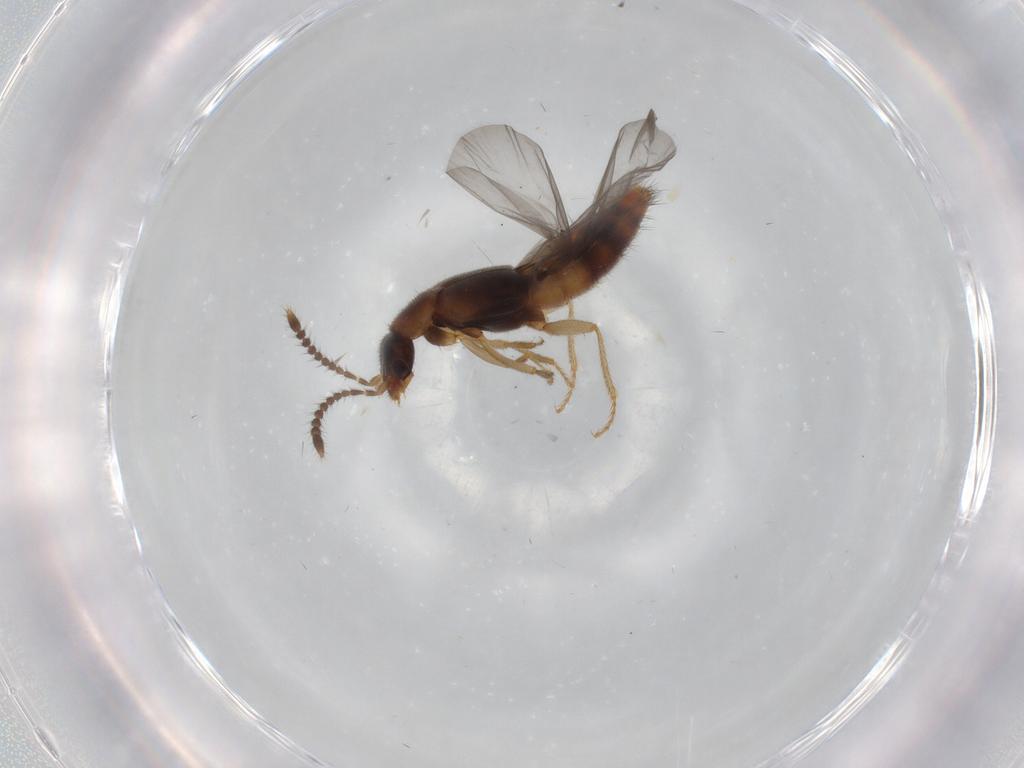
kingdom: Animalia
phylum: Arthropoda
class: Insecta
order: Coleoptera
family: Staphylinidae
